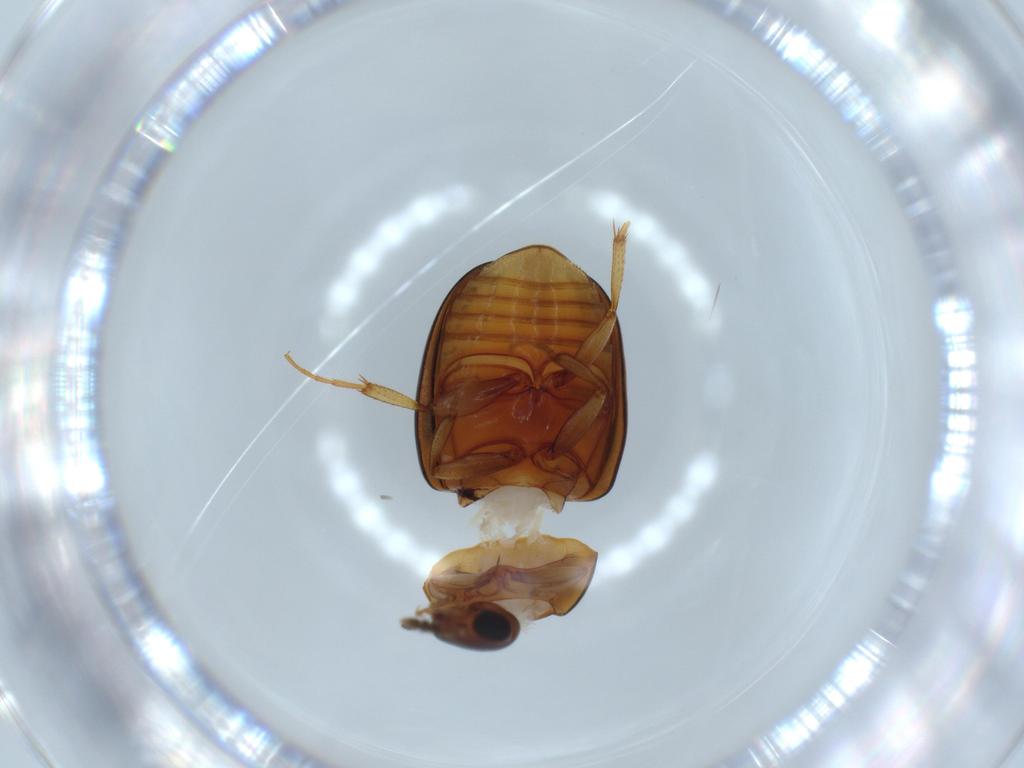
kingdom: Animalia
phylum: Arthropoda
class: Insecta
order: Coleoptera
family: Nitidulidae
